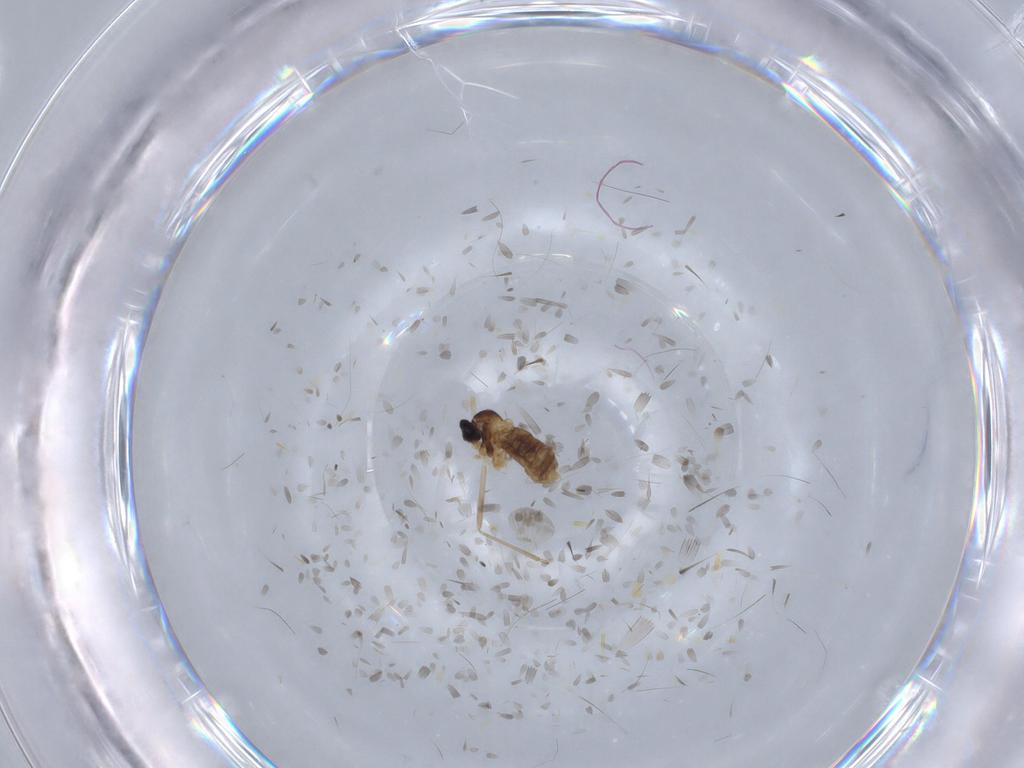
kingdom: Animalia
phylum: Arthropoda
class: Insecta
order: Diptera
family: Cecidomyiidae
